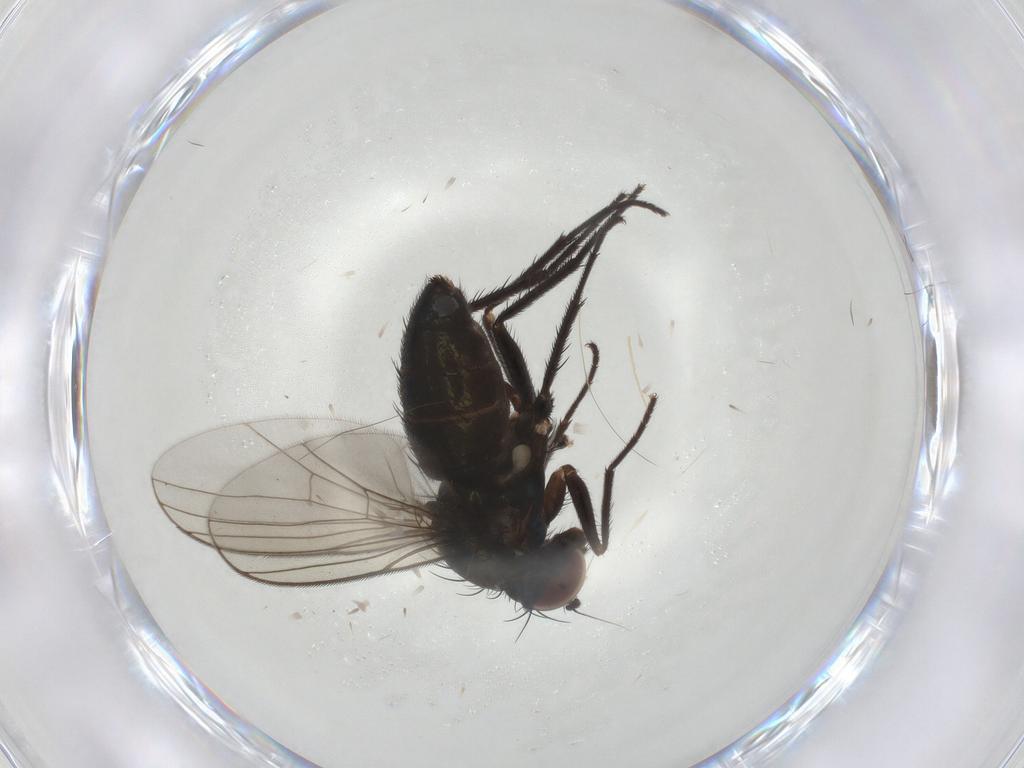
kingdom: Animalia
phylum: Arthropoda
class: Insecta
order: Diptera
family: Dolichopodidae
